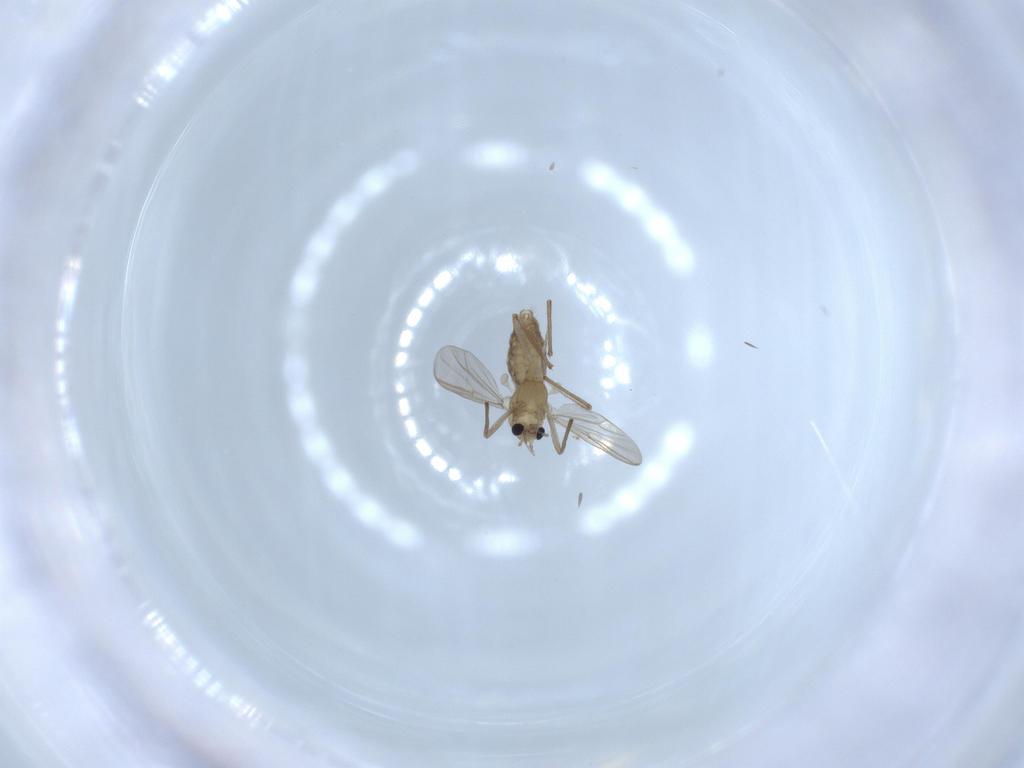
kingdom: Animalia
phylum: Arthropoda
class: Insecta
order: Diptera
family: Chironomidae
